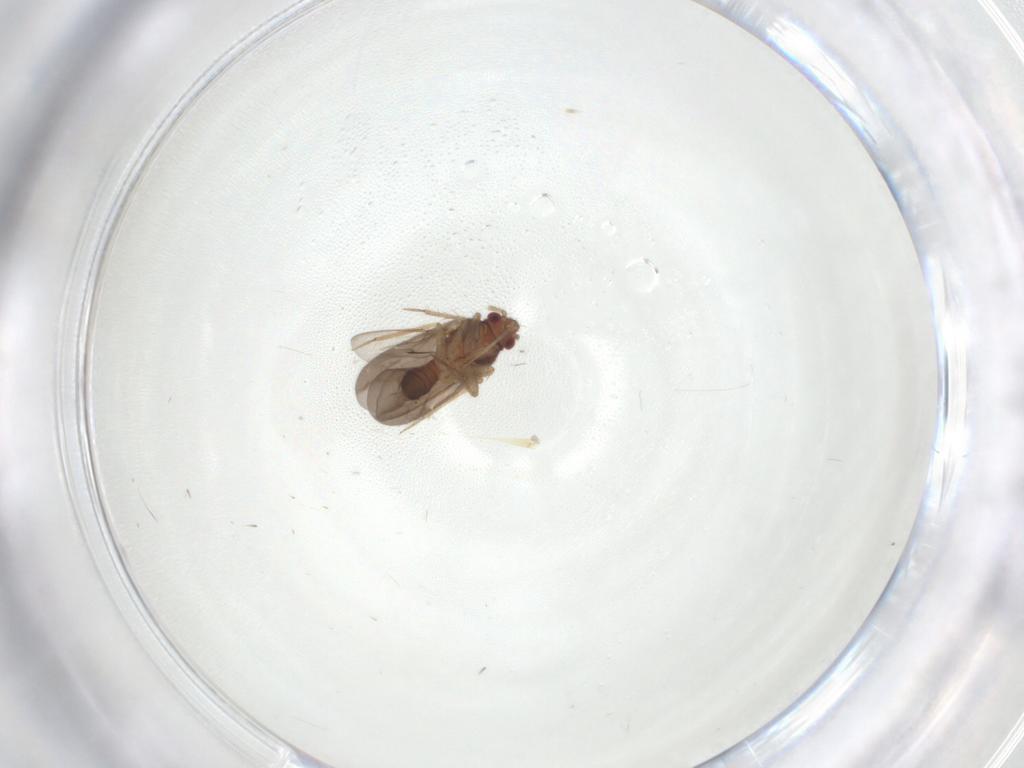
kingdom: Animalia
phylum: Arthropoda
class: Insecta
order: Hemiptera
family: Ceratocombidae
